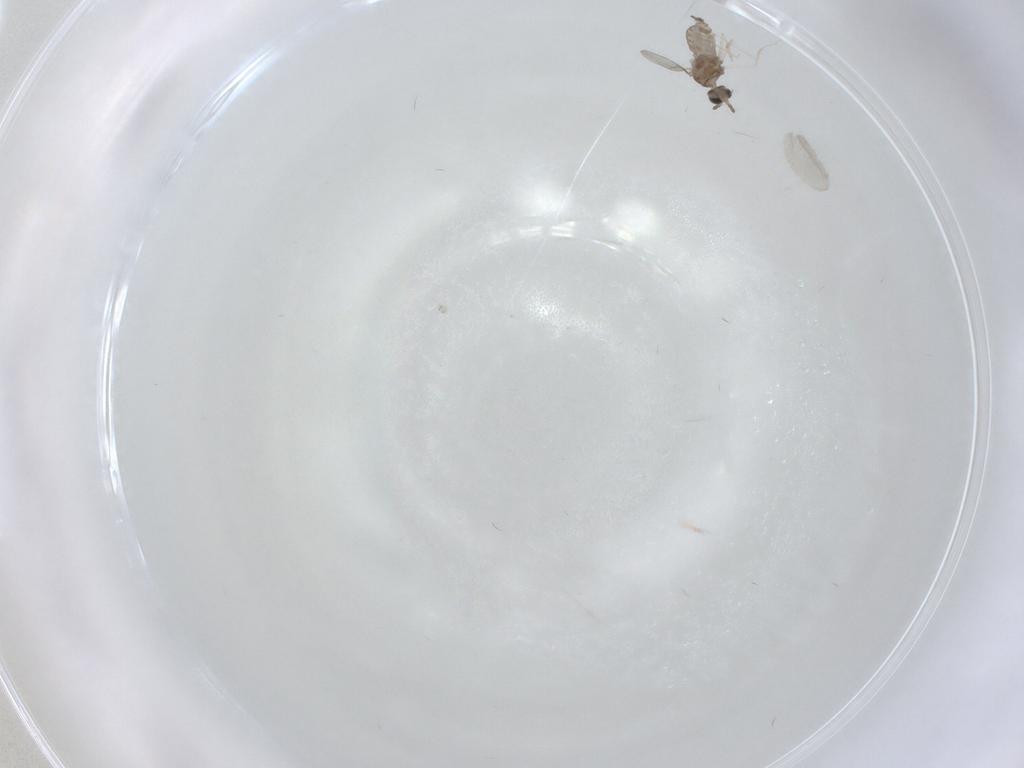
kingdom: Animalia
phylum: Arthropoda
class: Insecta
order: Diptera
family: Cecidomyiidae
